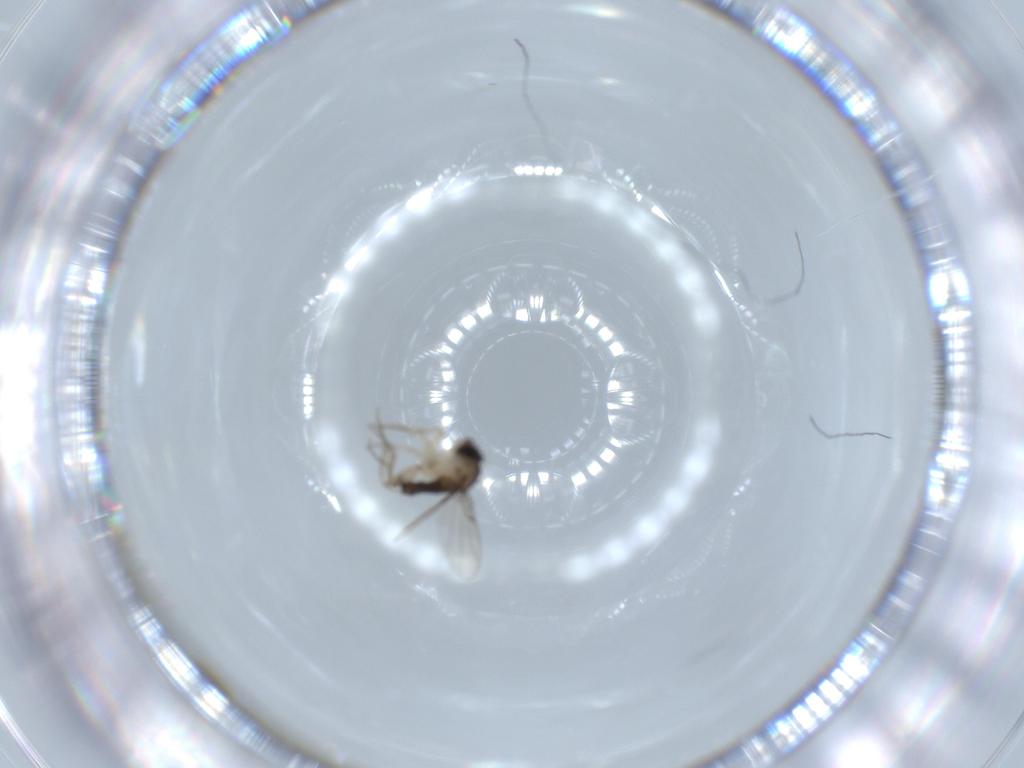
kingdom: Animalia
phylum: Arthropoda
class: Insecta
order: Diptera
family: Phoridae
